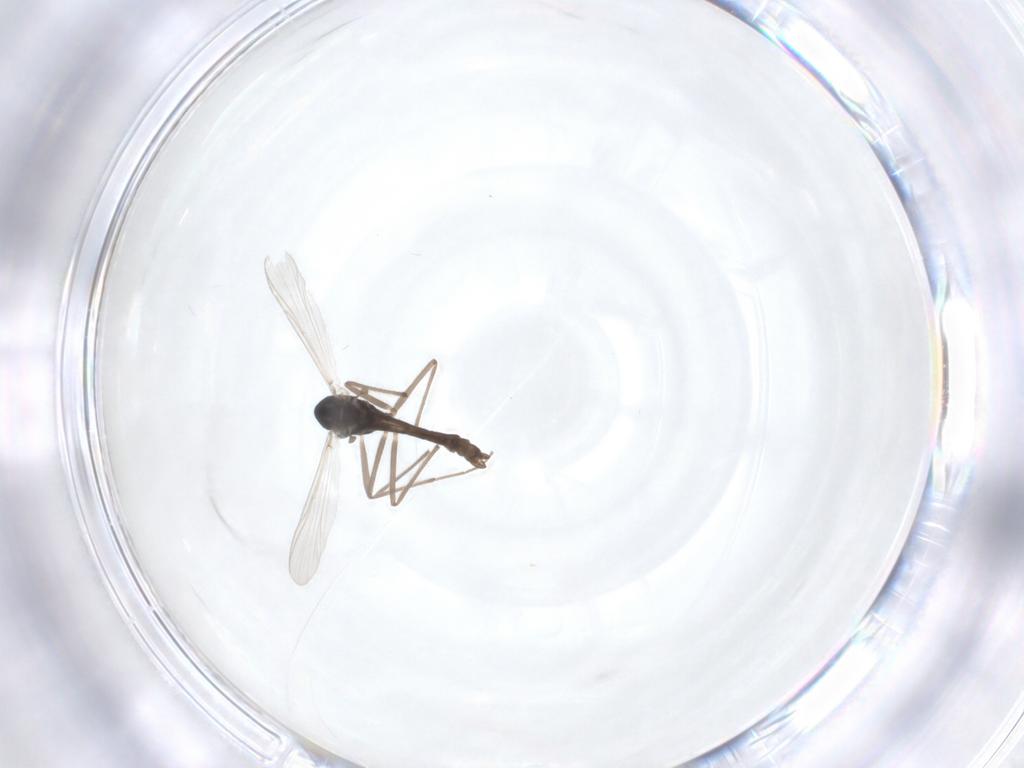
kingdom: Animalia
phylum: Arthropoda
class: Insecta
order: Diptera
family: Chironomidae
